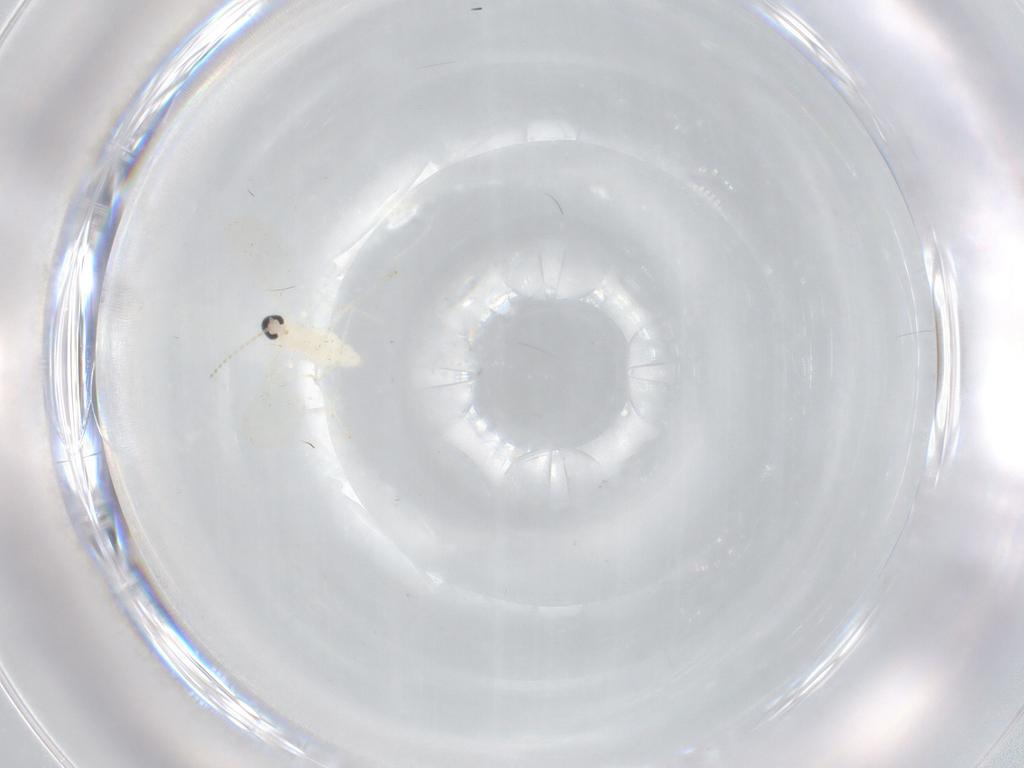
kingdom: Animalia
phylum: Arthropoda
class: Insecta
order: Diptera
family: Cecidomyiidae
